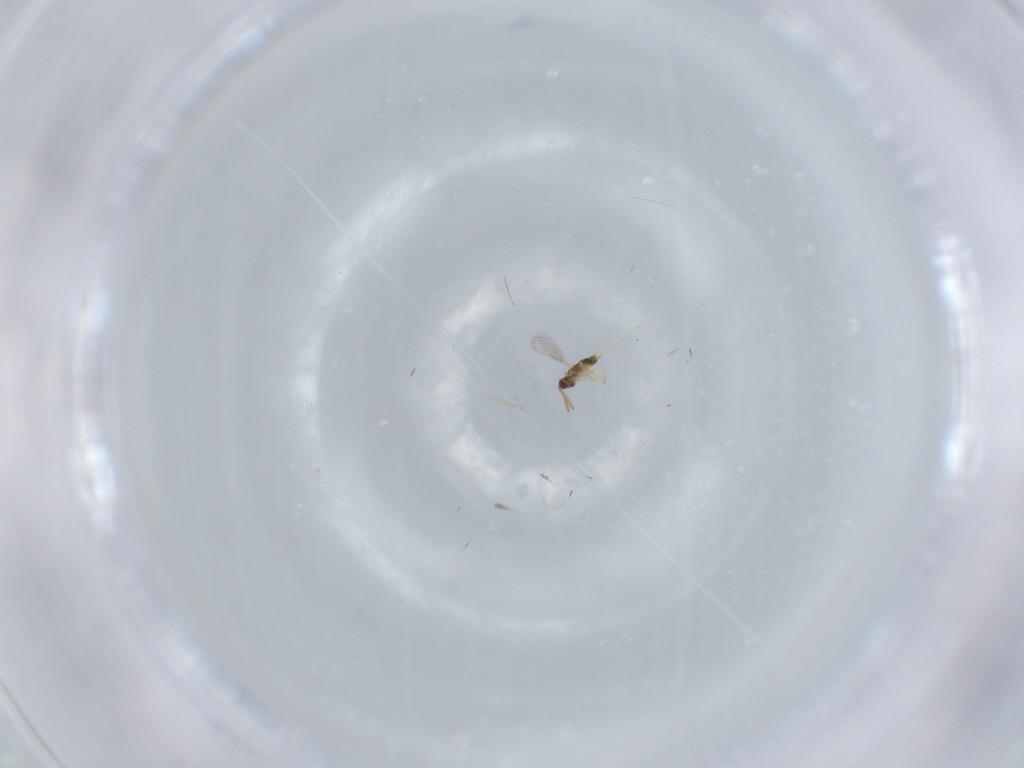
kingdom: Animalia
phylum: Arthropoda
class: Insecta
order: Hymenoptera
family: Aphelinidae
